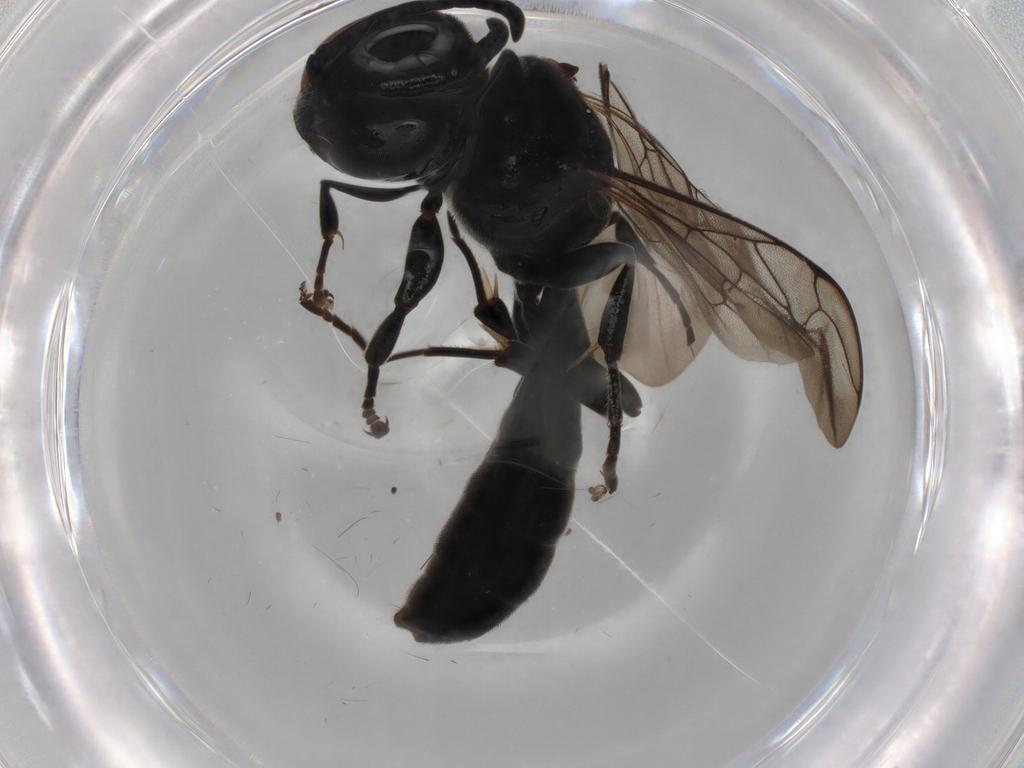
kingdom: Animalia
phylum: Arthropoda
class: Insecta
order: Hymenoptera
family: Crabronidae
